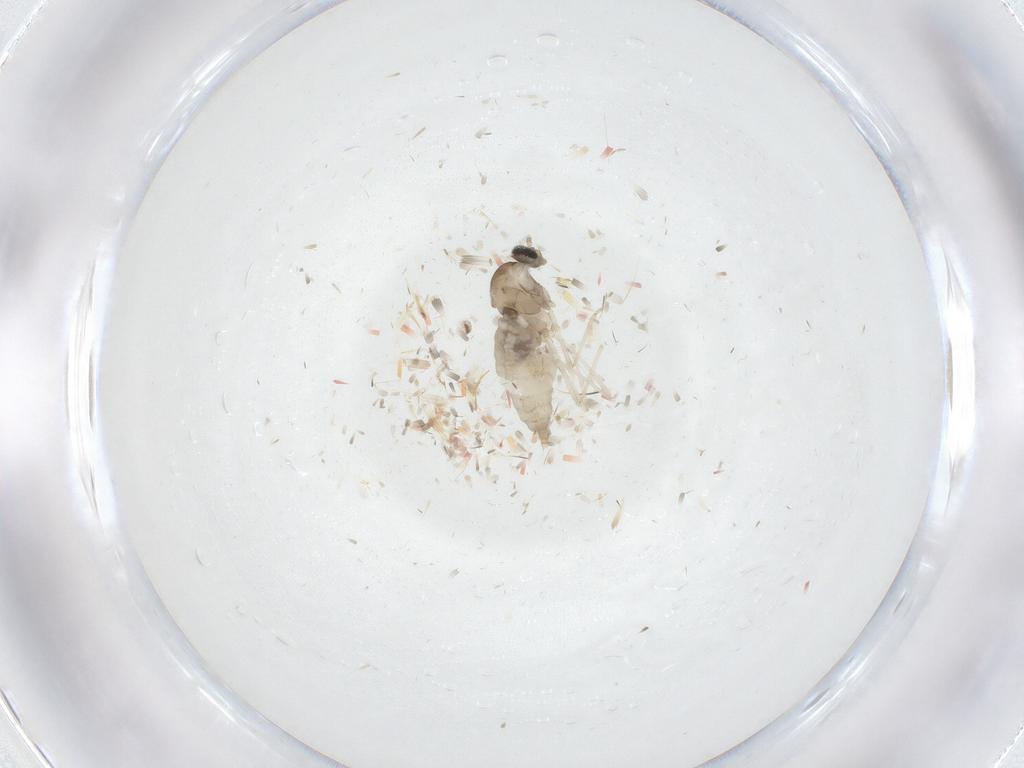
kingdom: Animalia
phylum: Arthropoda
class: Insecta
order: Diptera
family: Cecidomyiidae
